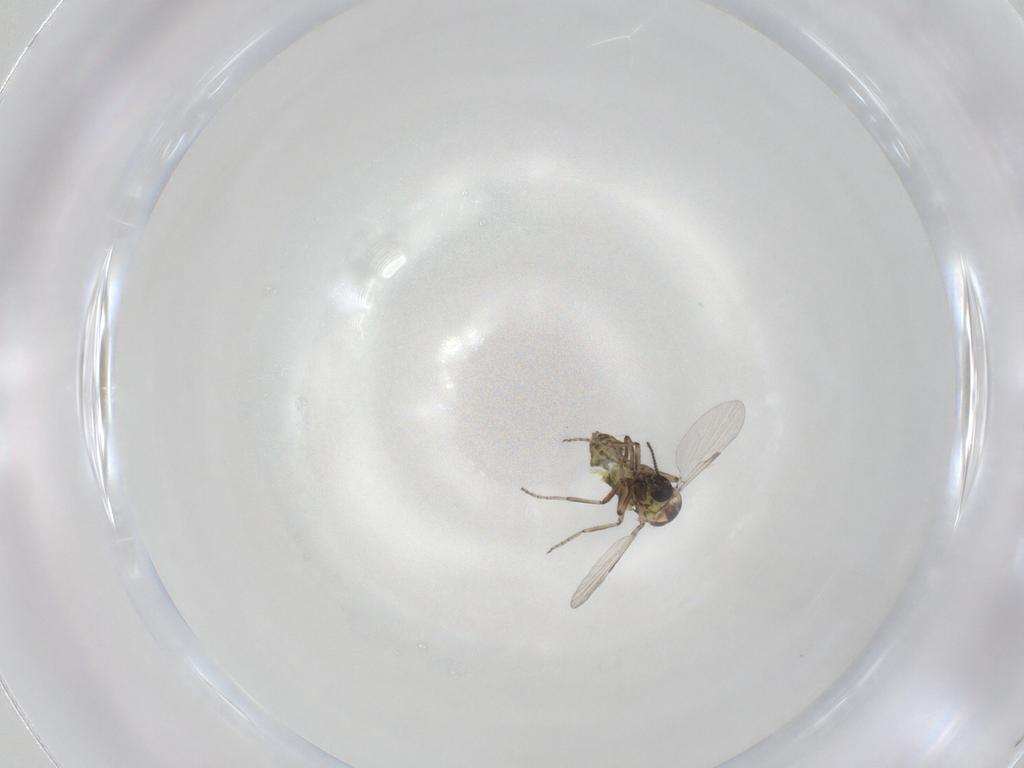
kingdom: Animalia
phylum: Arthropoda
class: Insecta
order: Diptera
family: Ceratopogonidae
